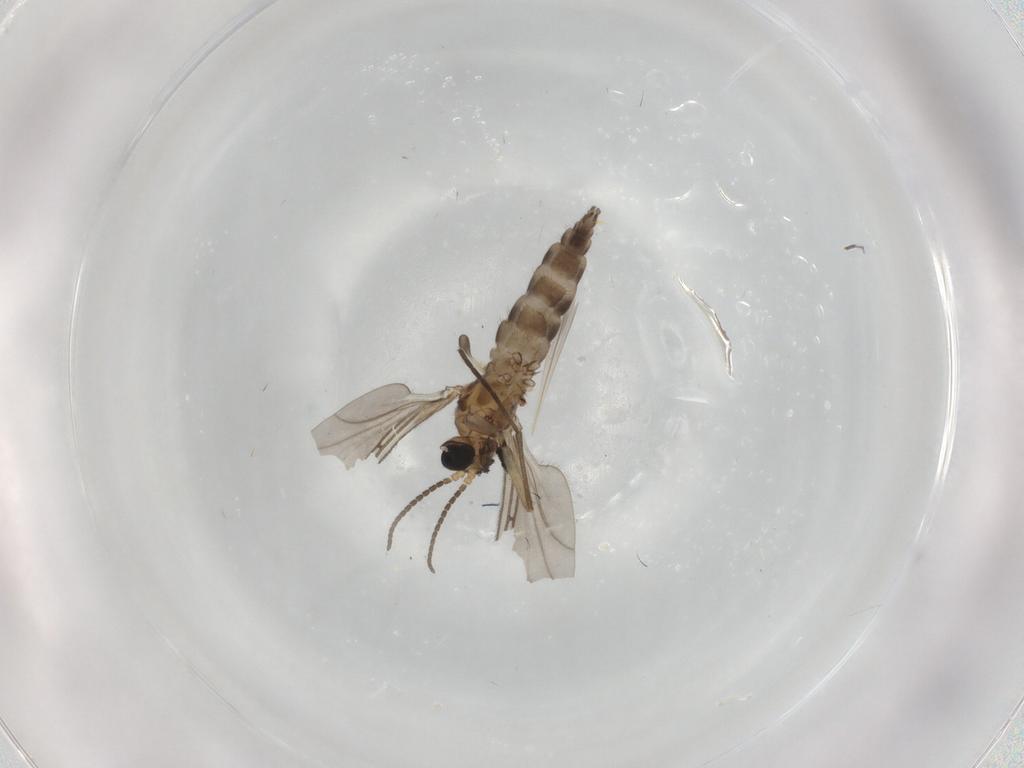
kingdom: Animalia
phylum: Arthropoda
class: Insecta
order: Diptera
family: Sciaridae
